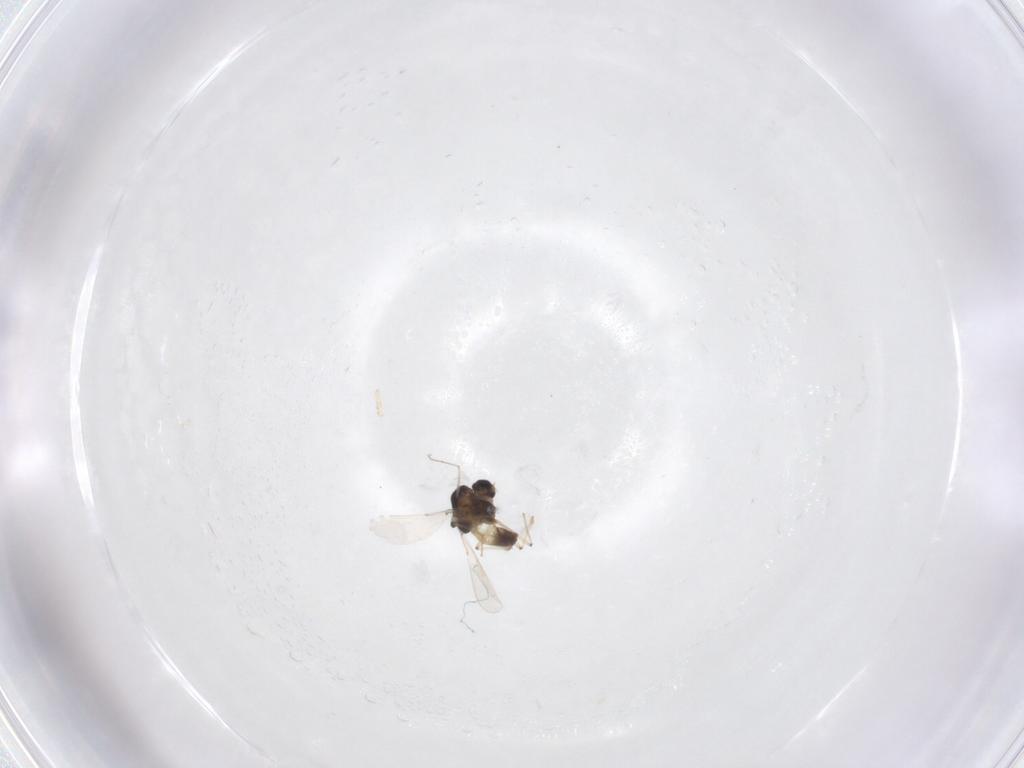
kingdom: Animalia
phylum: Arthropoda
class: Insecta
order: Diptera
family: Chironomidae
